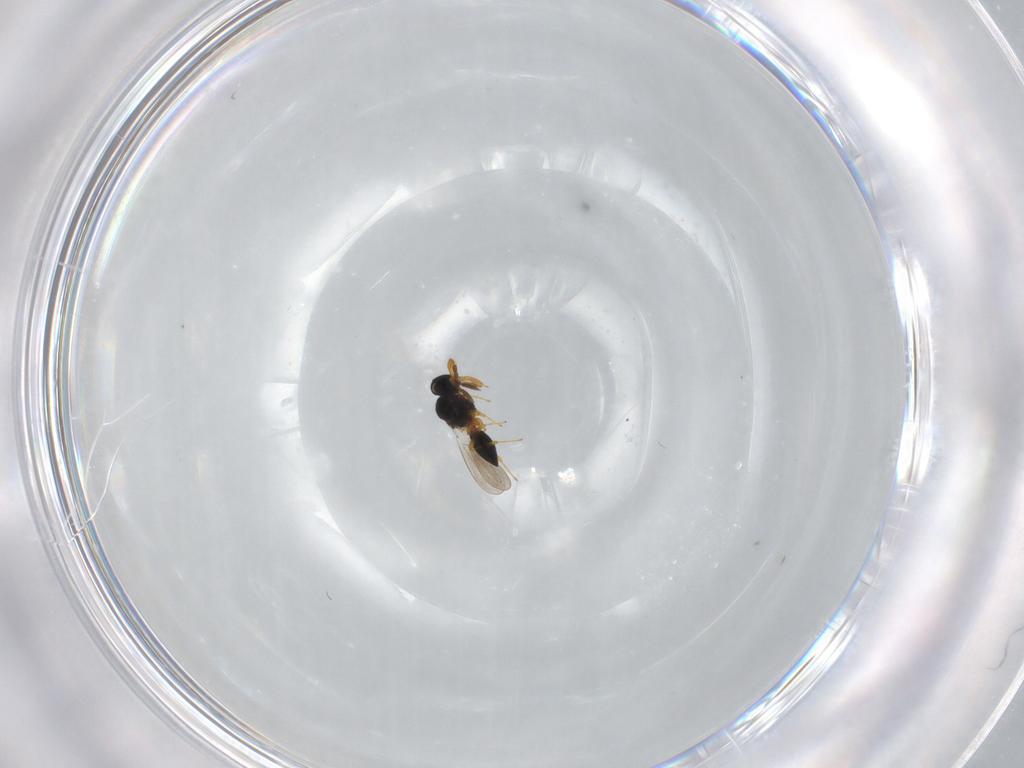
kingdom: Animalia
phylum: Arthropoda
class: Insecta
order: Hymenoptera
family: Platygastridae
